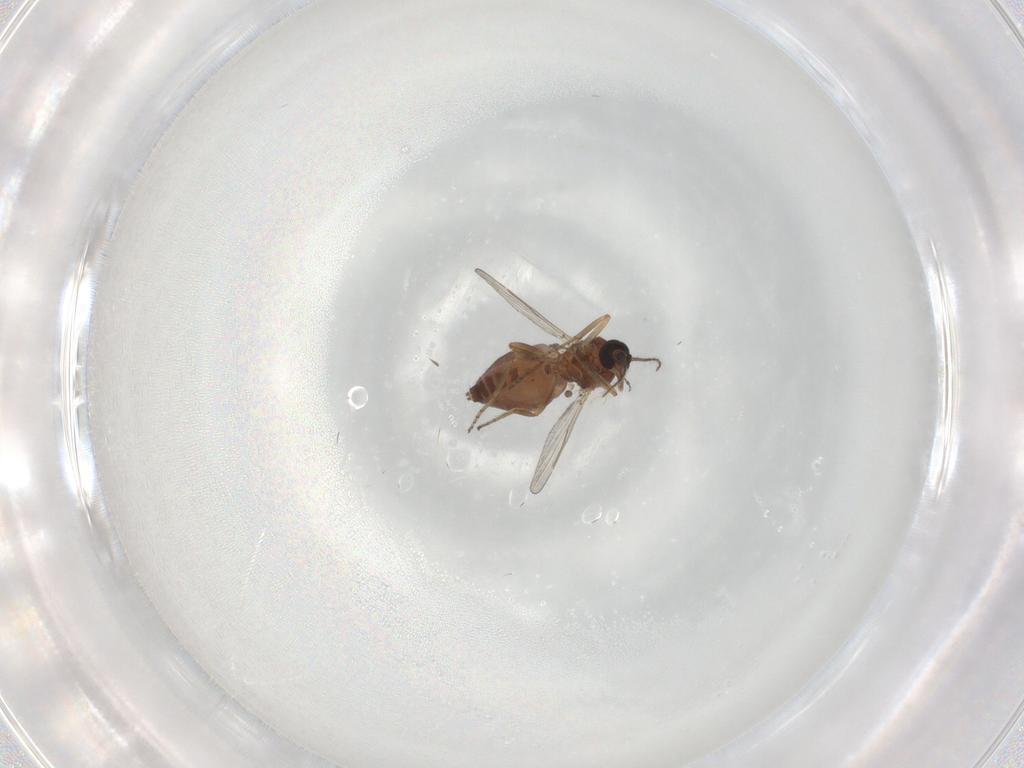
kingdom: Animalia
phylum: Arthropoda
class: Insecta
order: Diptera
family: Ceratopogonidae
